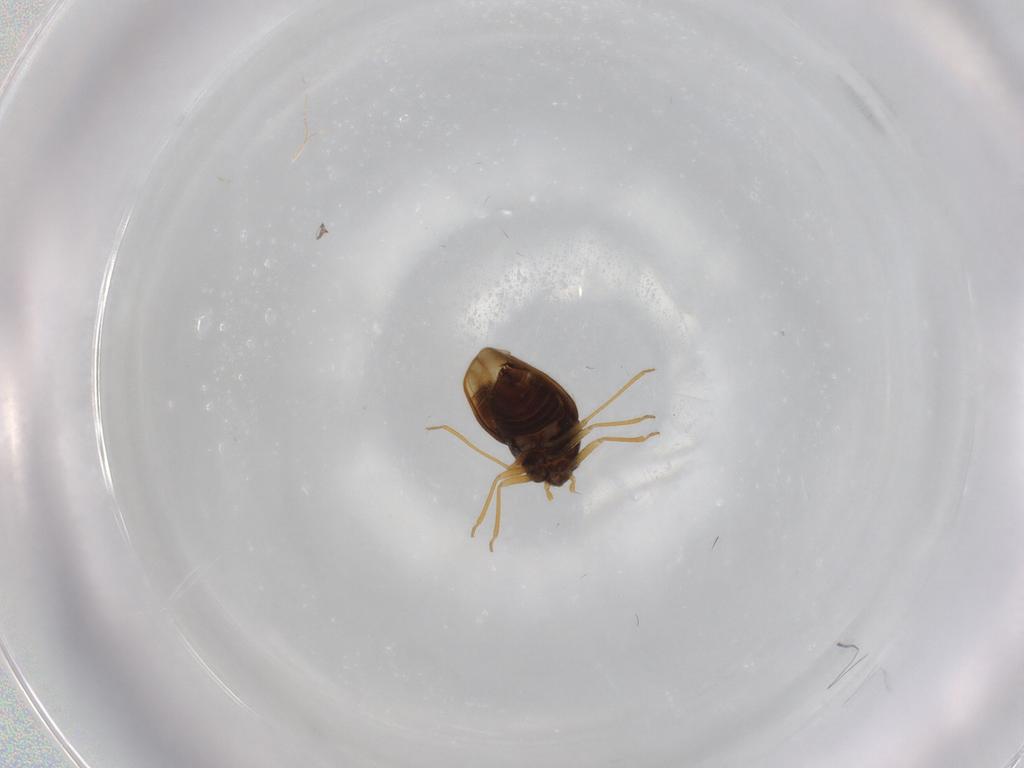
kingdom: Animalia
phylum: Arthropoda
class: Insecta
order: Hemiptera
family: Schizopteridae
